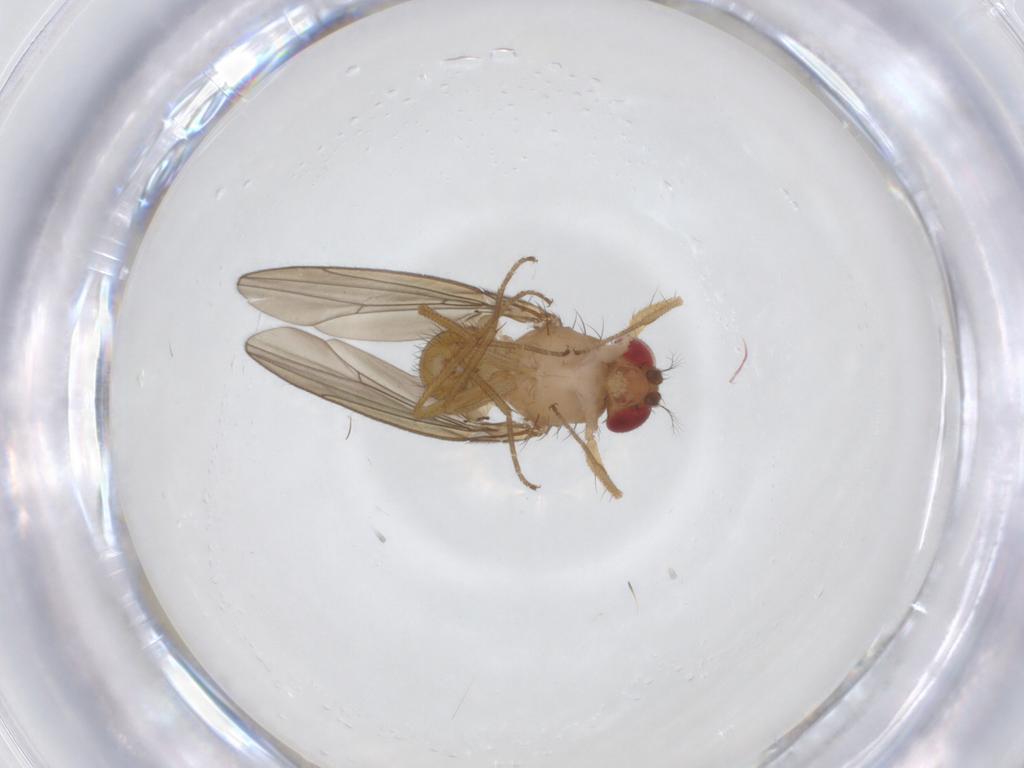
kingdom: Animalia
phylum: Arthropoda
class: Insecta
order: Diptera
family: Drosophilidae
